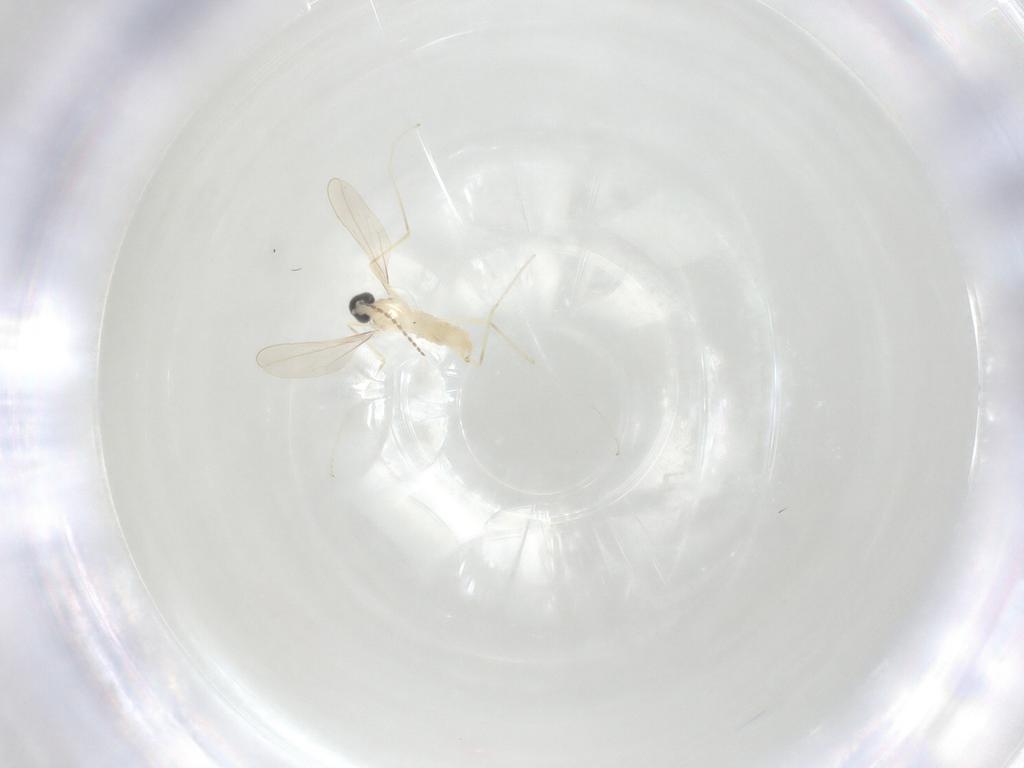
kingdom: Animalia
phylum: Arthropoda
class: Insecta
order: Diptera
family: Cecidomyiidae
